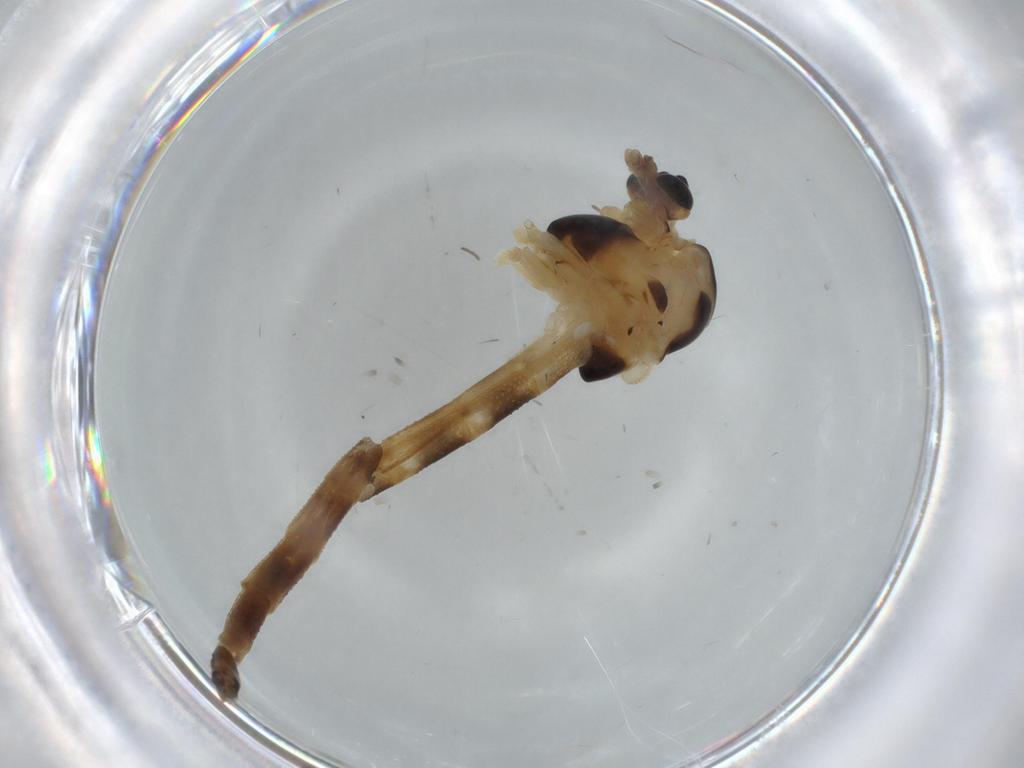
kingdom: Animalia
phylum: Arthropoda
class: Insecta
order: Diptera
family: Chironomidae
